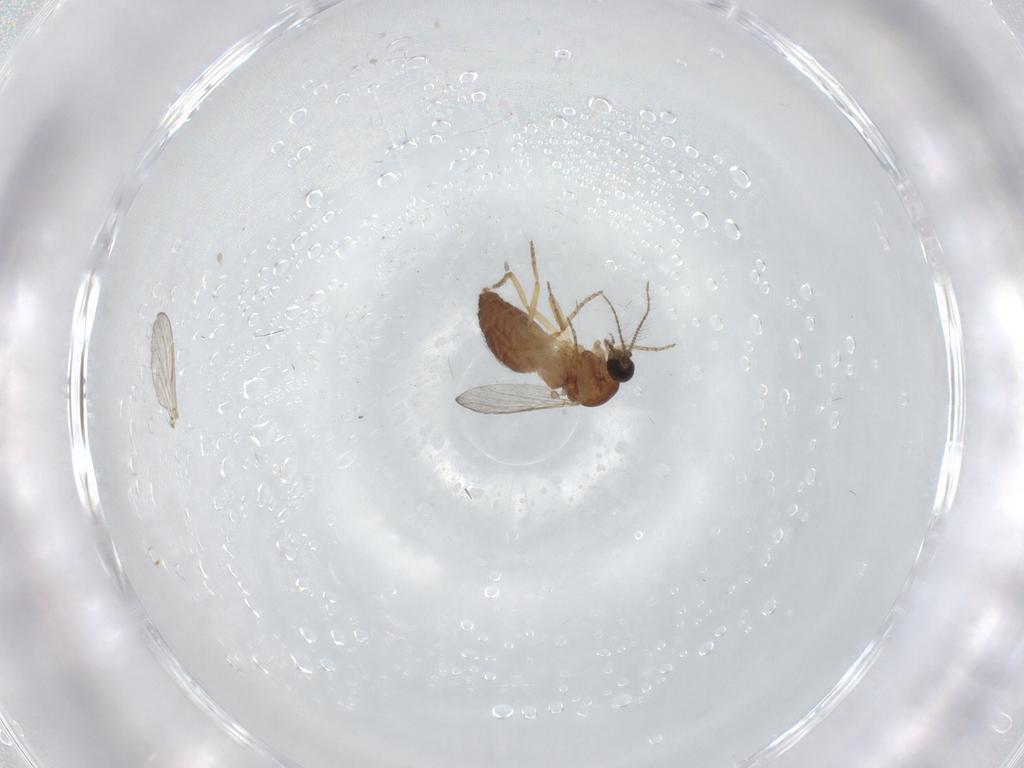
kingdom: Animalia
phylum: Arthropoda
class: Insecta
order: Diptera
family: Ceratopogonidae
